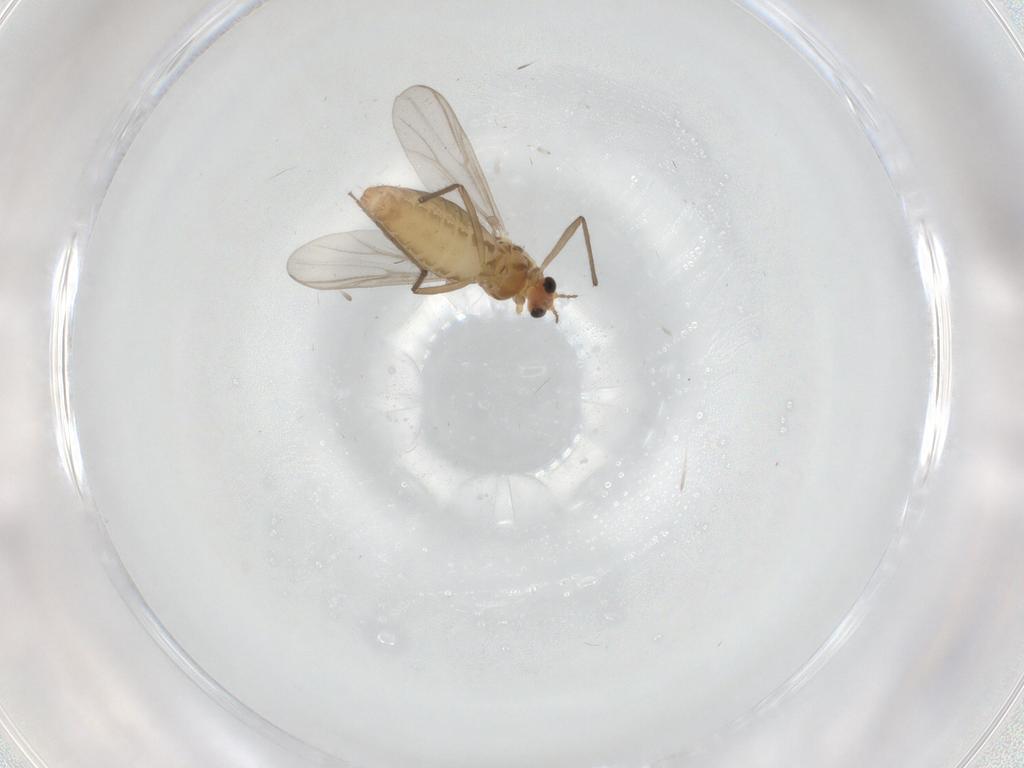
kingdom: Animalia
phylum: Arthropoda
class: Insecta
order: Diptera
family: Chironomidae
